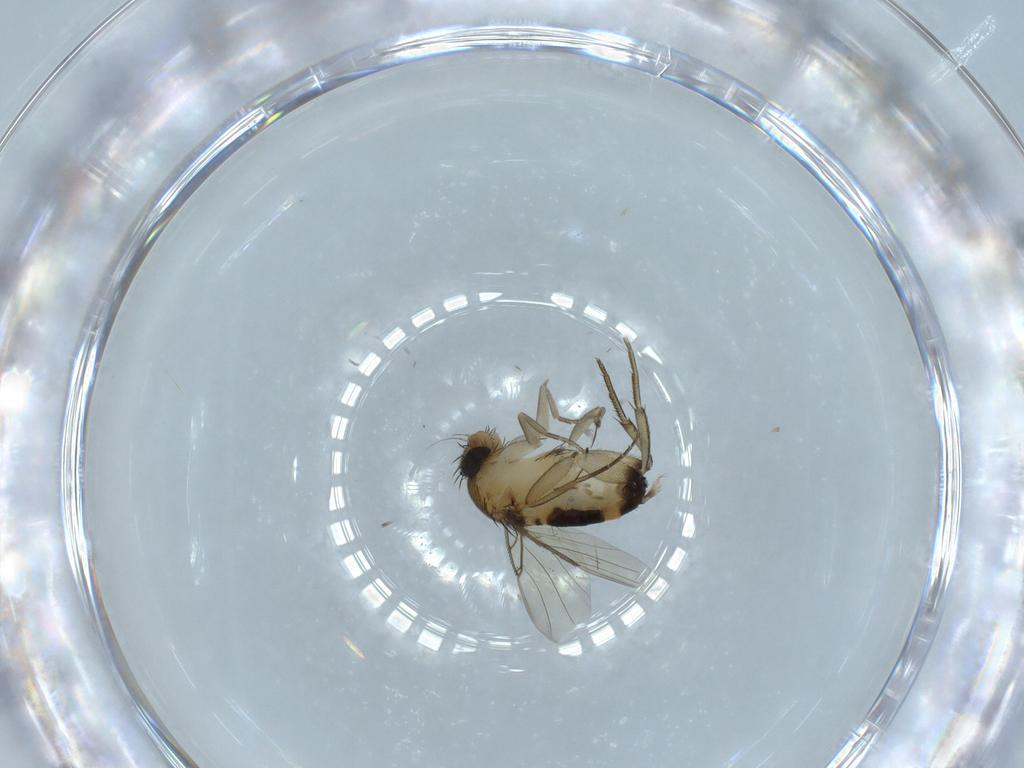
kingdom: Animalia
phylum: Arthropoda
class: Insecta
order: Diptera
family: Phoridae
